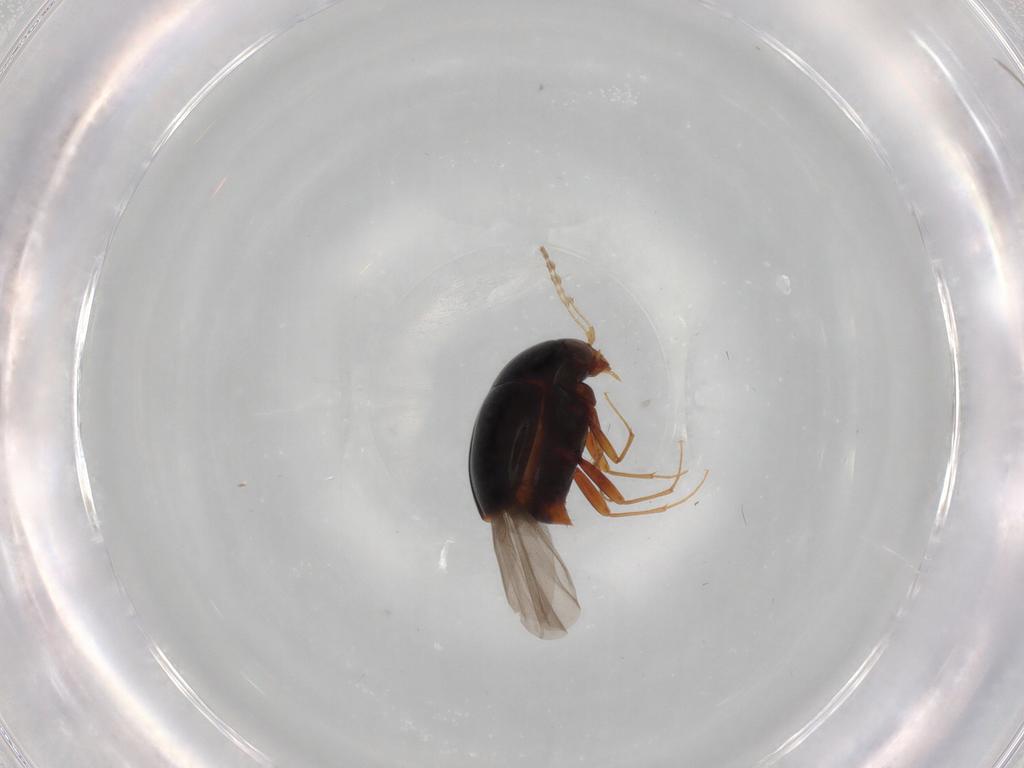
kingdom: Animalia
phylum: Arthropoda
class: Insecta
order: Coleoptera
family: Staphylinidae
